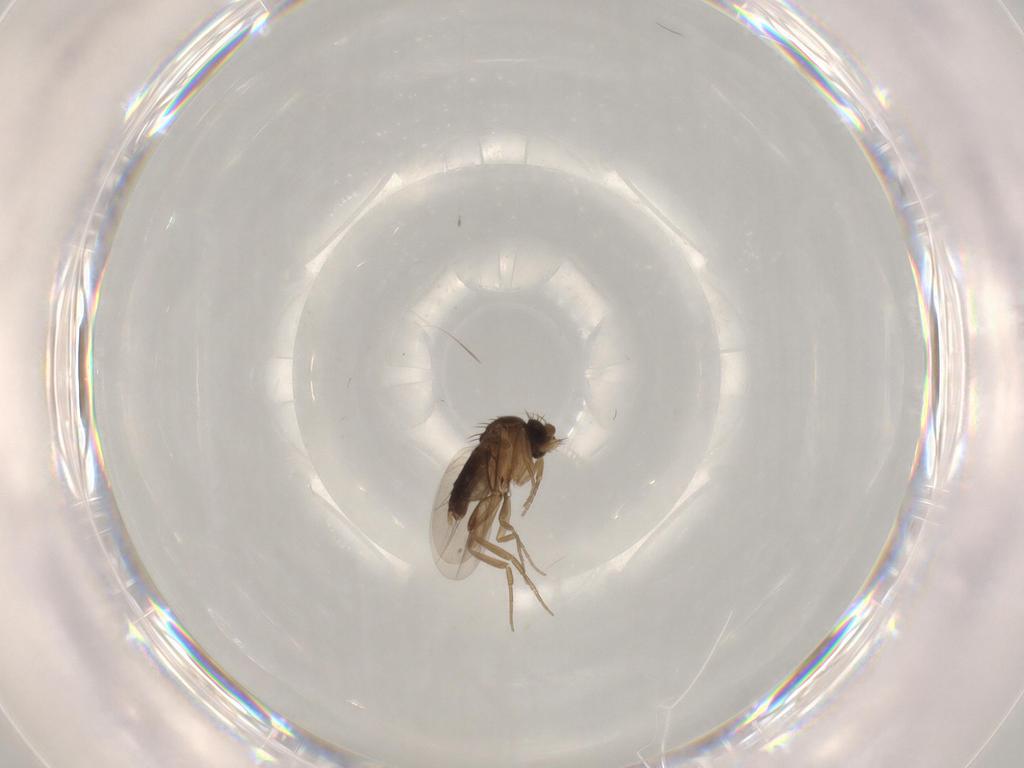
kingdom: Animalia
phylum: Arthropoda
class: Insecta
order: Diptera
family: Phoridae
